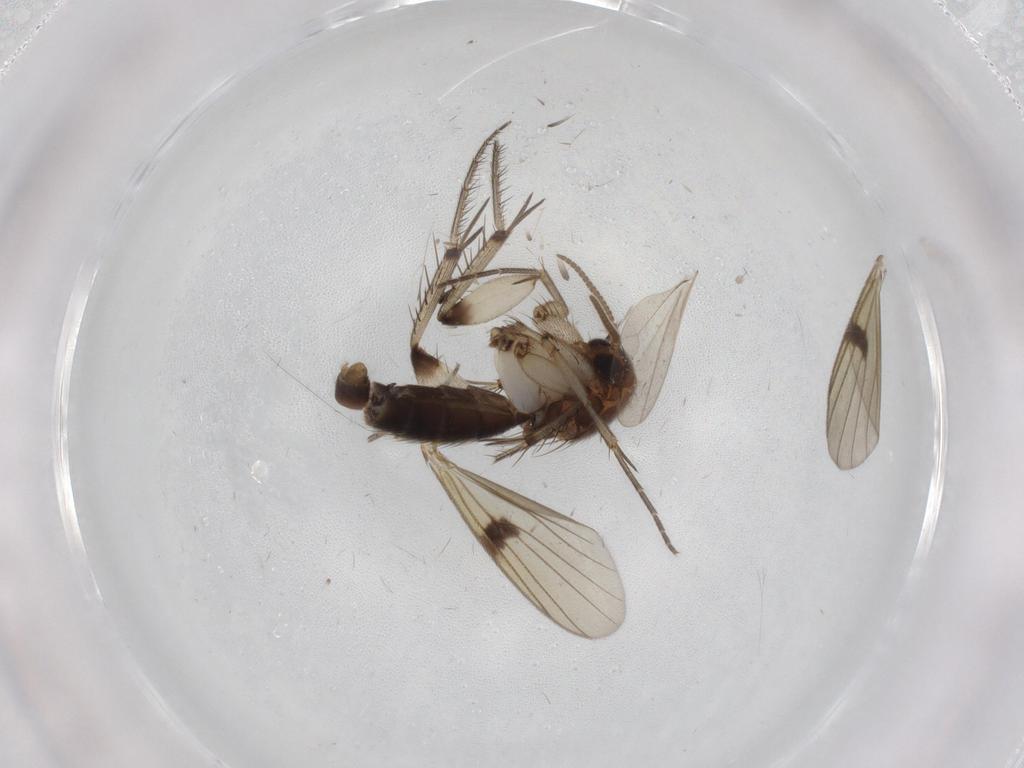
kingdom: Animalia
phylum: Arthropoda
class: Insecta
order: Diptera
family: Mycetophilidae
